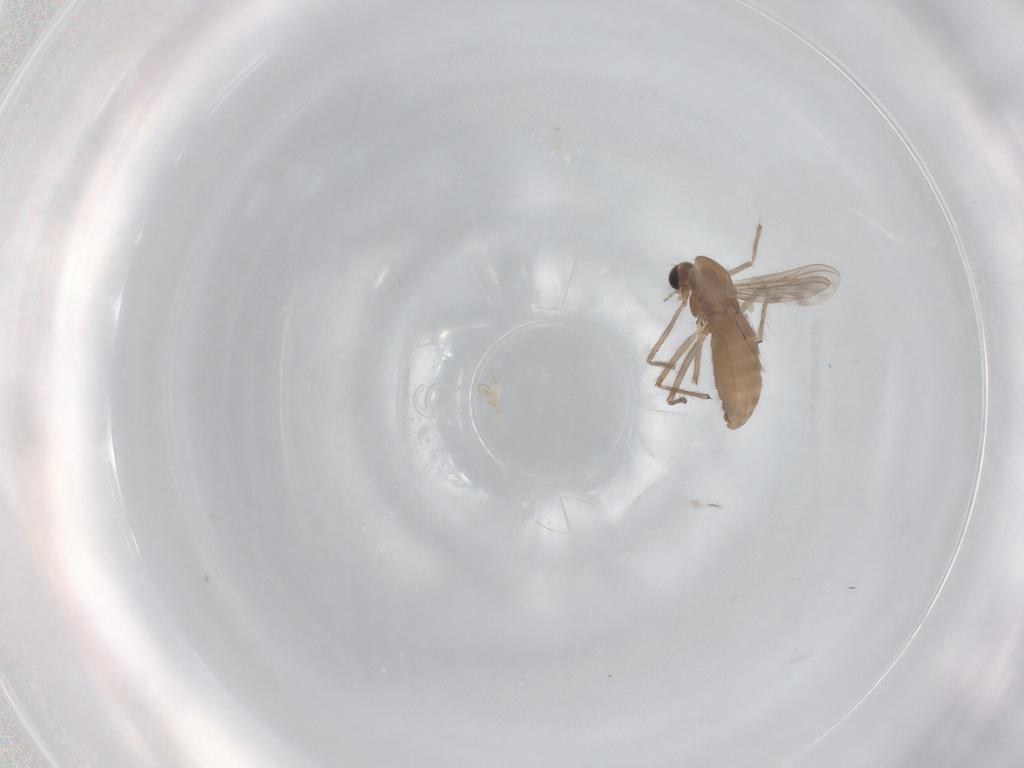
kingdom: Animalia
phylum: Arthropoda
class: Insecta
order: Diptera
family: Chironomidae
